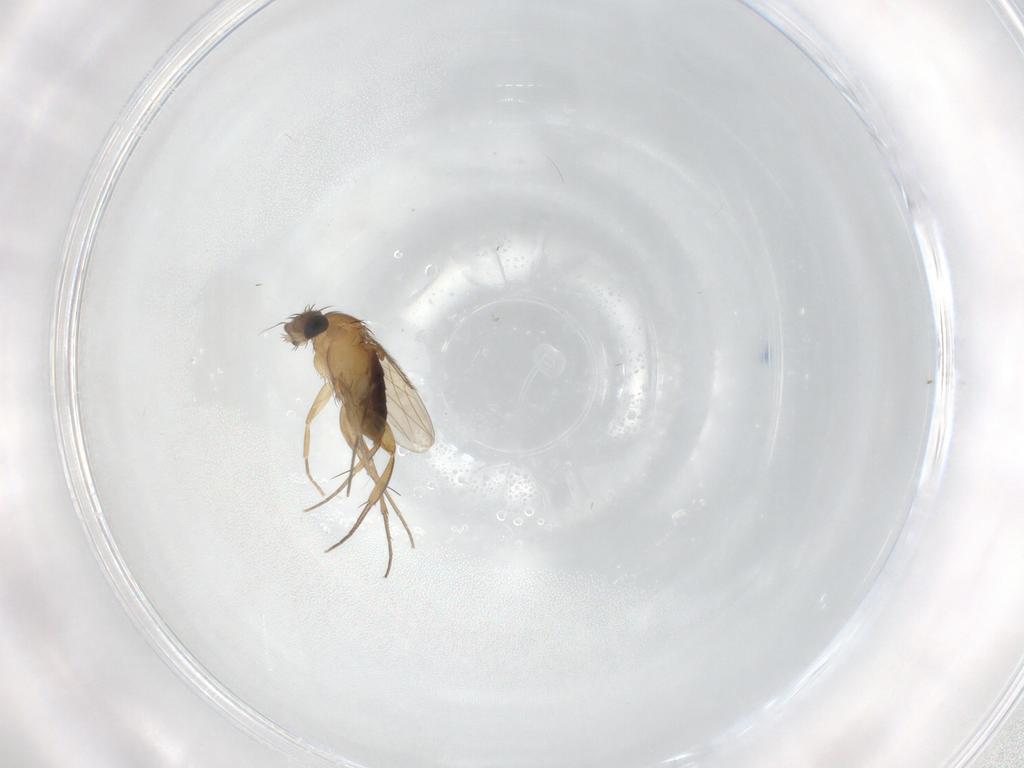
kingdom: Animalia
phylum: Arthropoda
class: Insecta
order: Diptera
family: Phoridae
